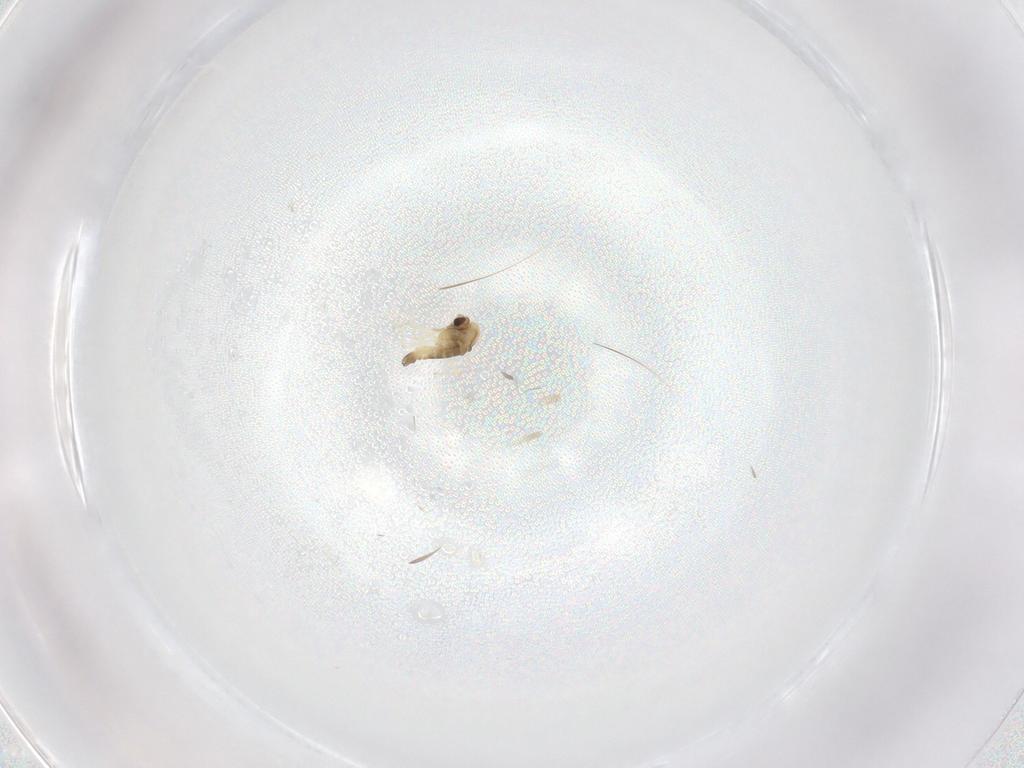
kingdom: Animalia
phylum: Arthropoda
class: Insecta
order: Diptera
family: Chironomidae
